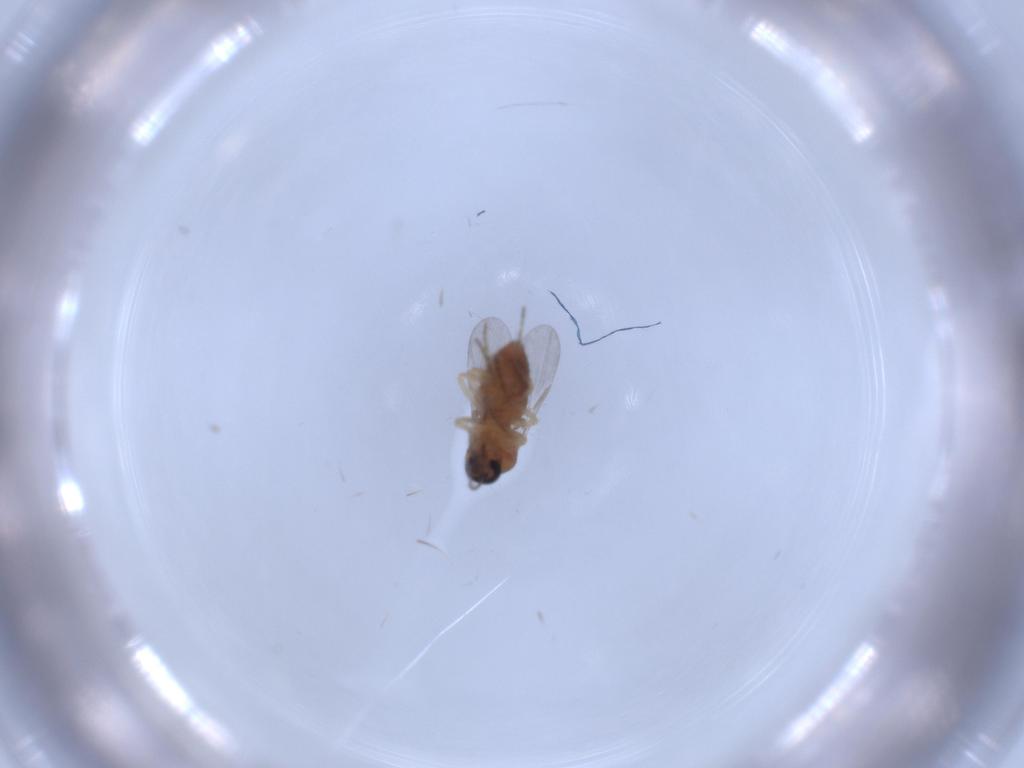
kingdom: Animalia
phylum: Arthropoda
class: Insecta
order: Diptera
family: Ceratopogonidae
